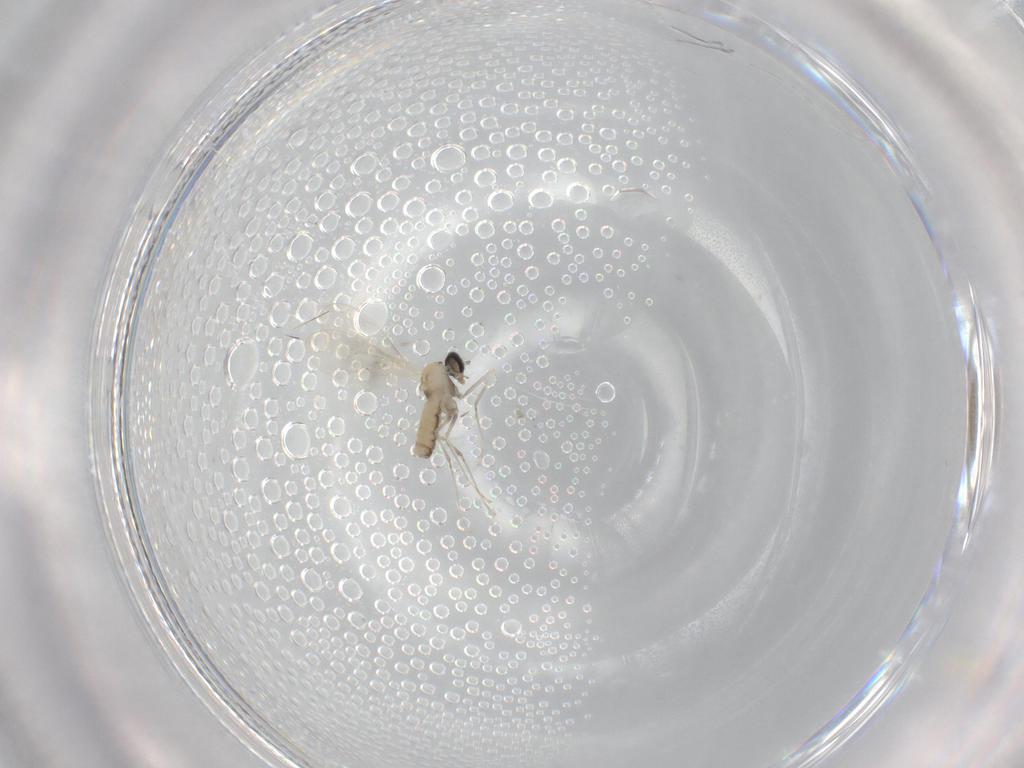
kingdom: Animalia
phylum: Arthropoda
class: Insecta
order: Diptera
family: Cecidomyiidae
